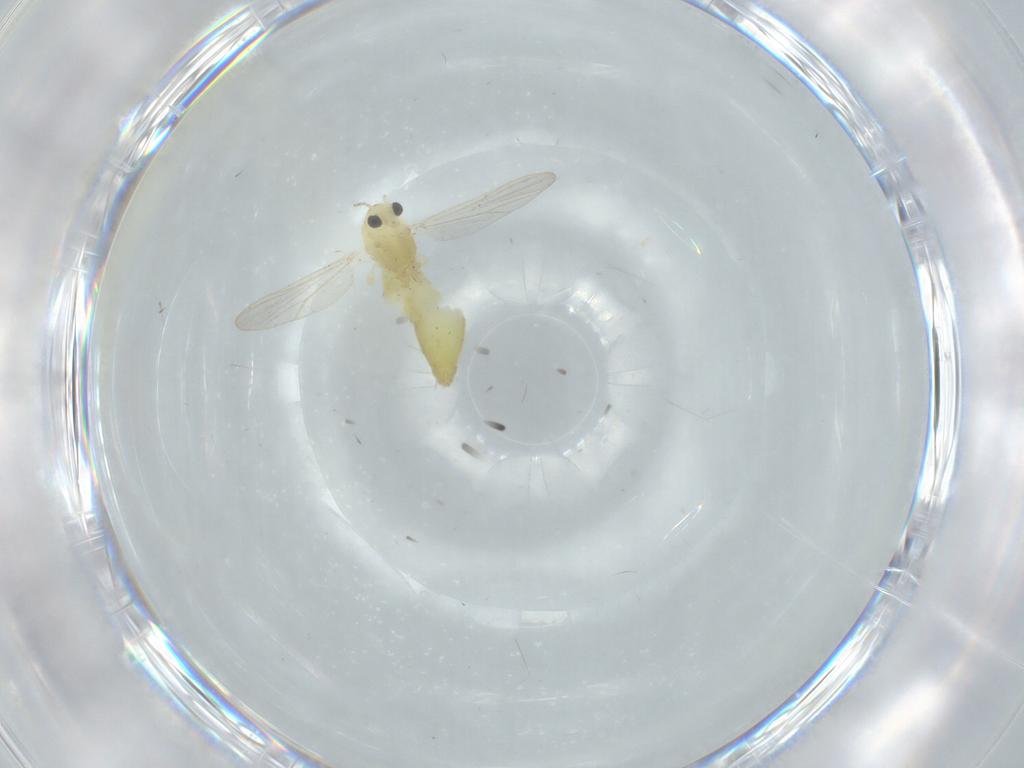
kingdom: Animalia
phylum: Arthropoda
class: Insecta
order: Diptera
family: Chironomidae
